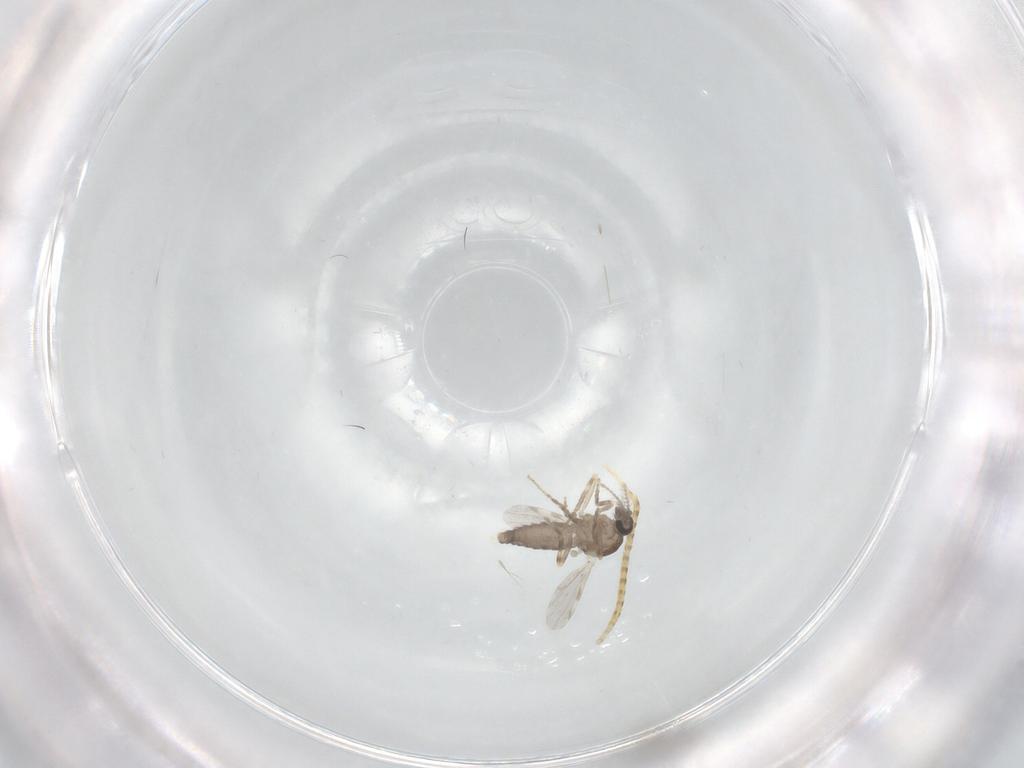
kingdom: Animalia
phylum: Arthropoda
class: Insecta
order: Diptera
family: Ceratopogonidae
